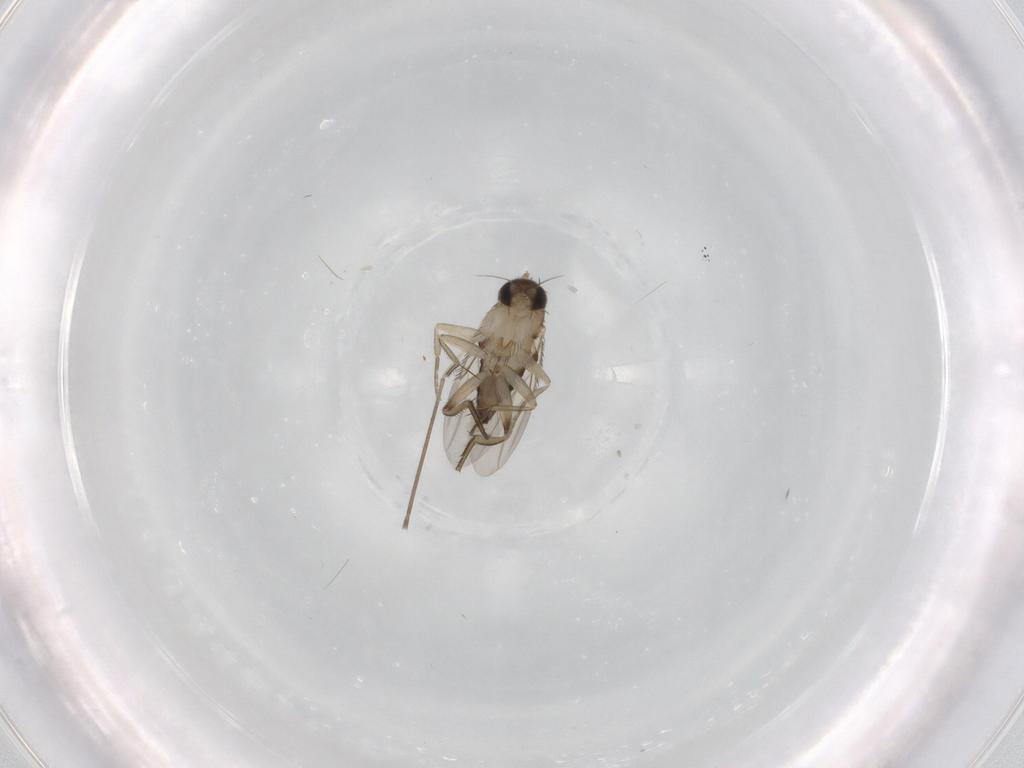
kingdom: Animalia
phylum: Arthropoda
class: Insecta
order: Diptera
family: Phoridae
